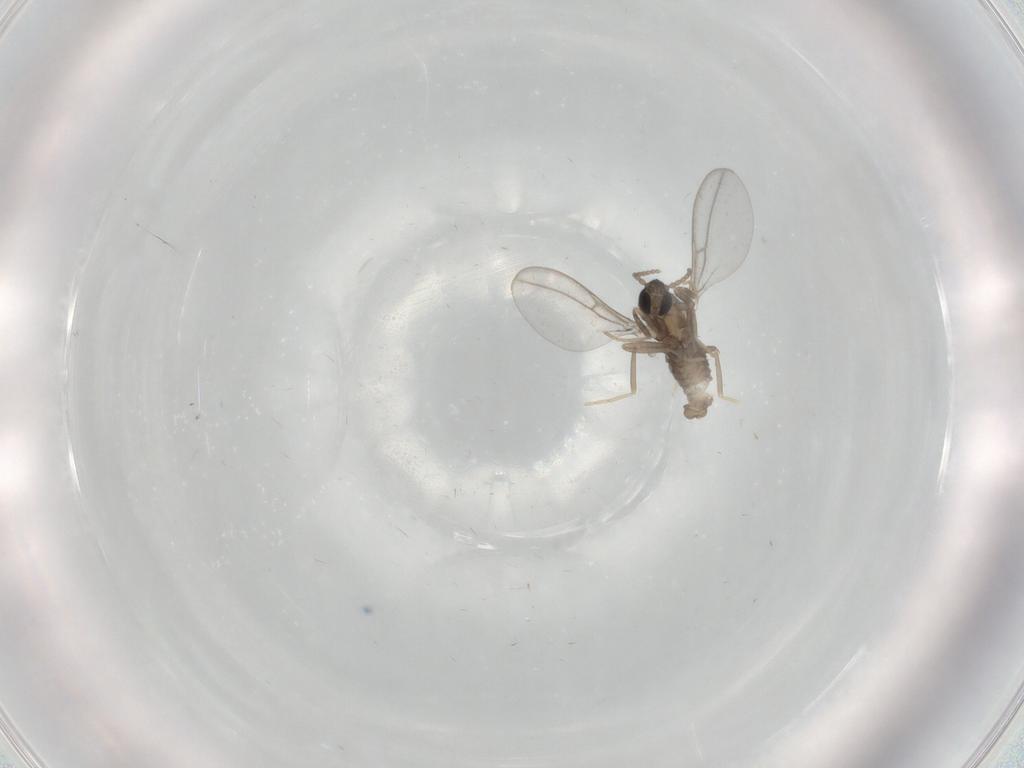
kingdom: Animalia
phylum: Arthropoda
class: Insecta
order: Diptera
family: Cecidomyiidae
